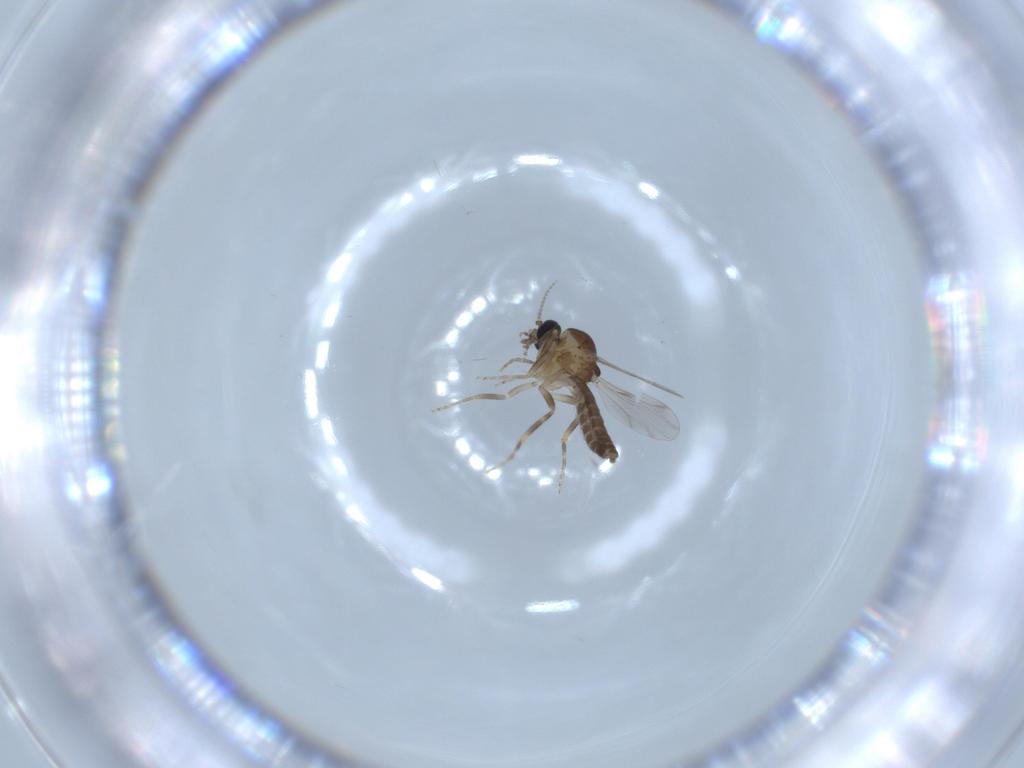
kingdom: Animalia
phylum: Arthropoda
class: Insecta
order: Diptera
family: Ceratopogonidae
